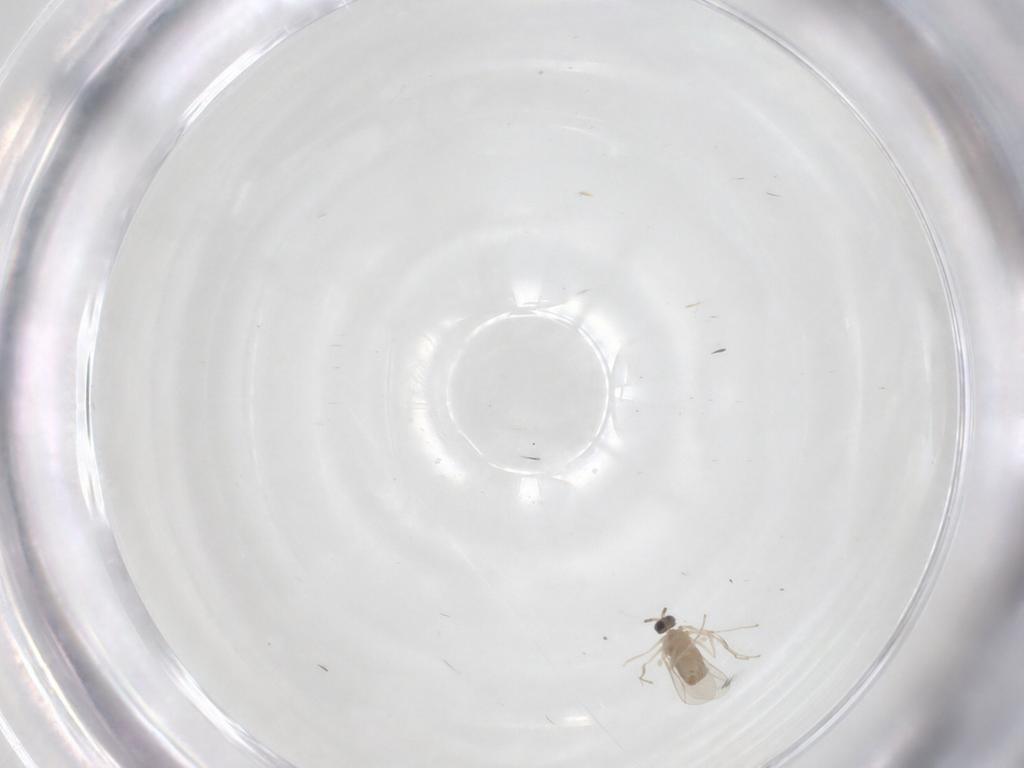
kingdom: Animalia
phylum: Arthropoda
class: Insecta
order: Diptera
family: Cecidomyiidae
